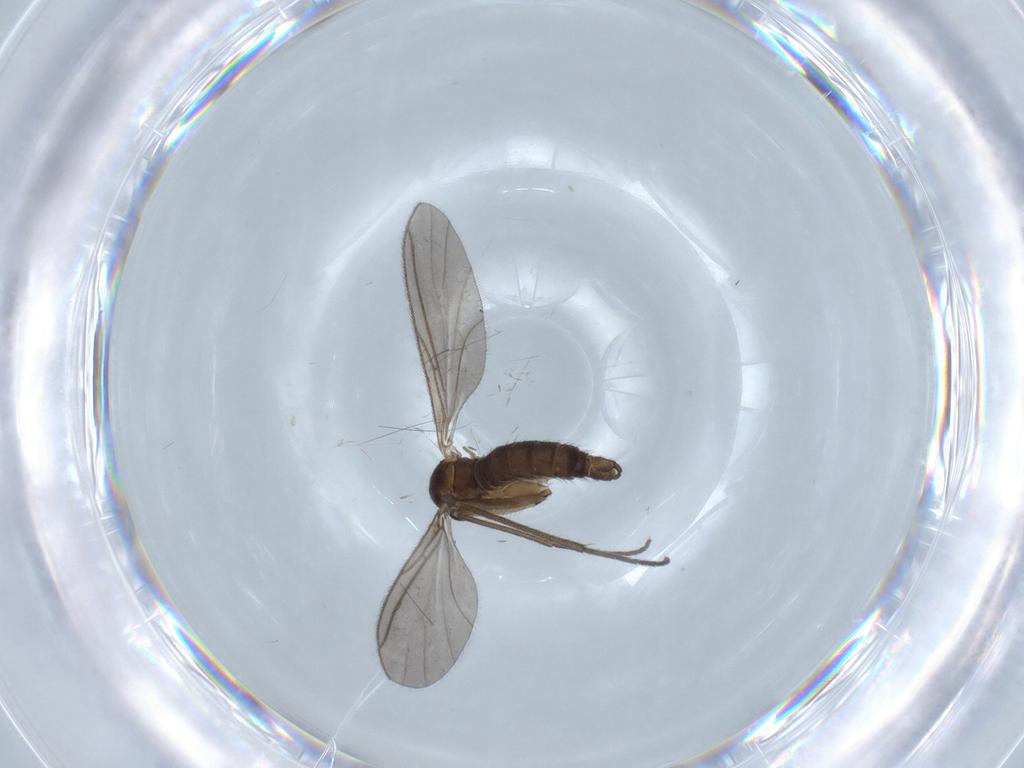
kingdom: Animalia
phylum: Arthropoda
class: Insecta
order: Diptera
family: Sciaridae
